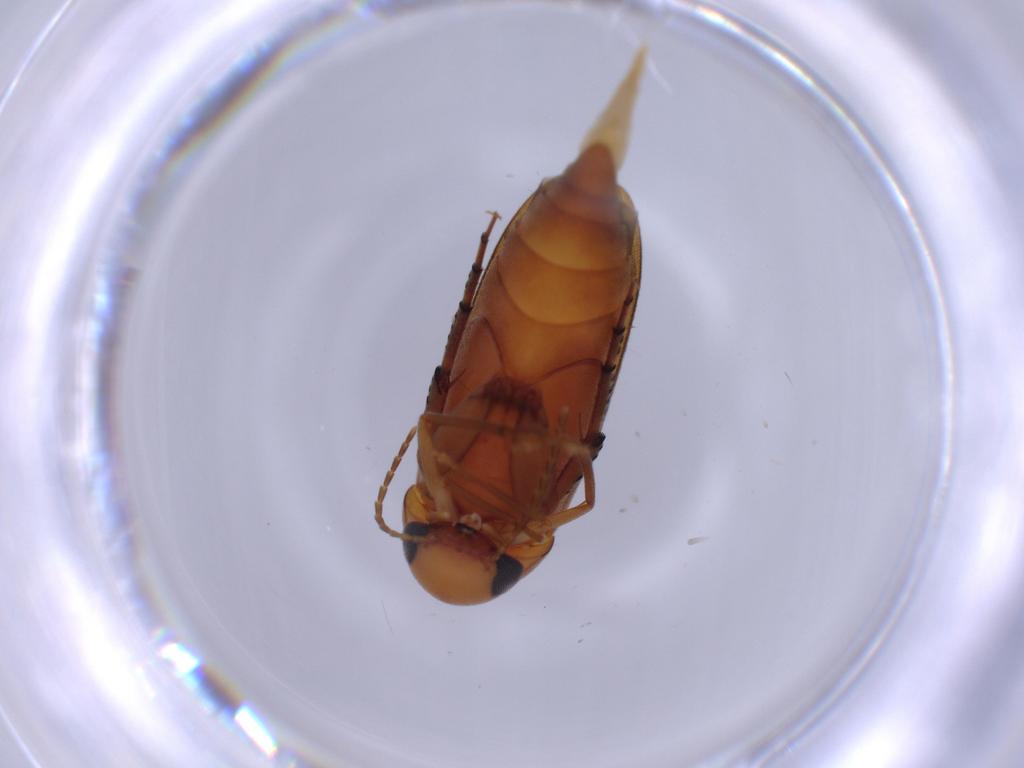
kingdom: Animalia
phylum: Arthropoda
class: Insecta
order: Coleoptera
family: Mordellidae
